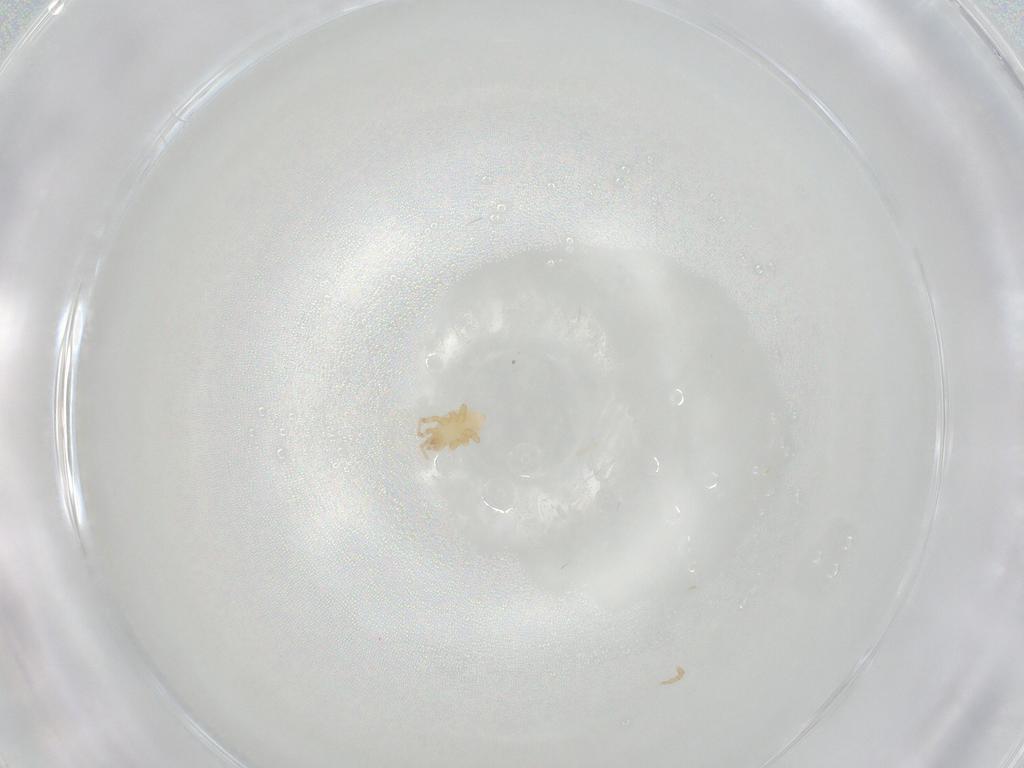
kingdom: Animalia
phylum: Arthropoda
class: Arachnida
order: Mesostigmata
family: Parasitidae
